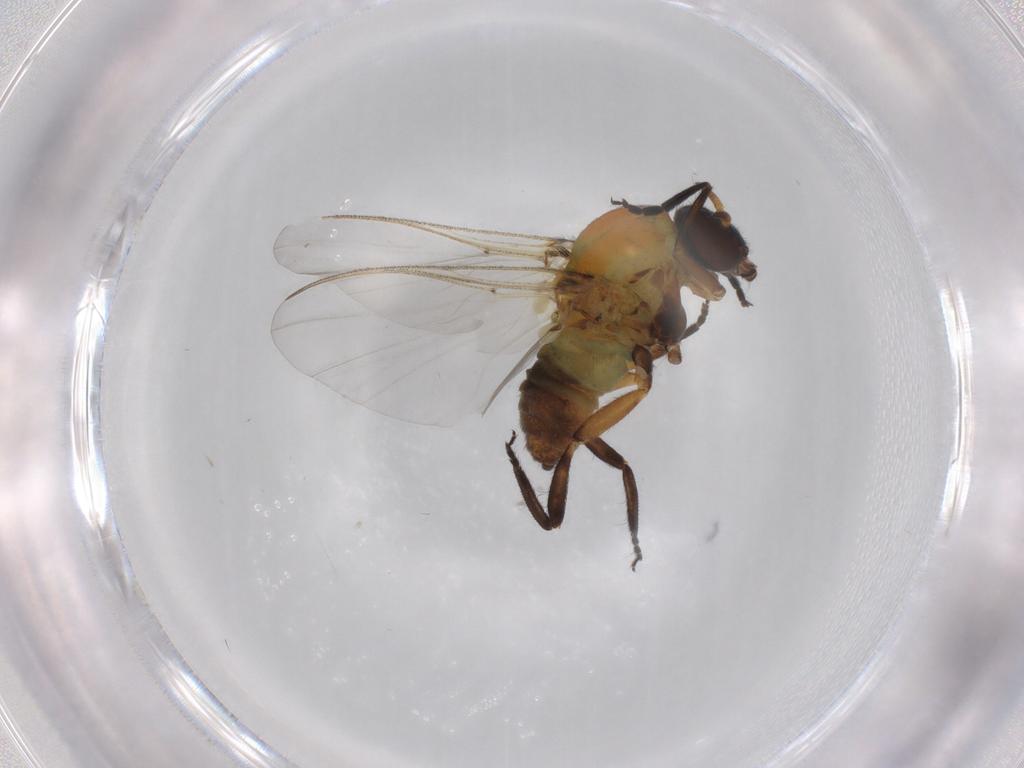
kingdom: Animalia
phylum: Arthropoda
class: Insecta
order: Diptera
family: Chironomidae
